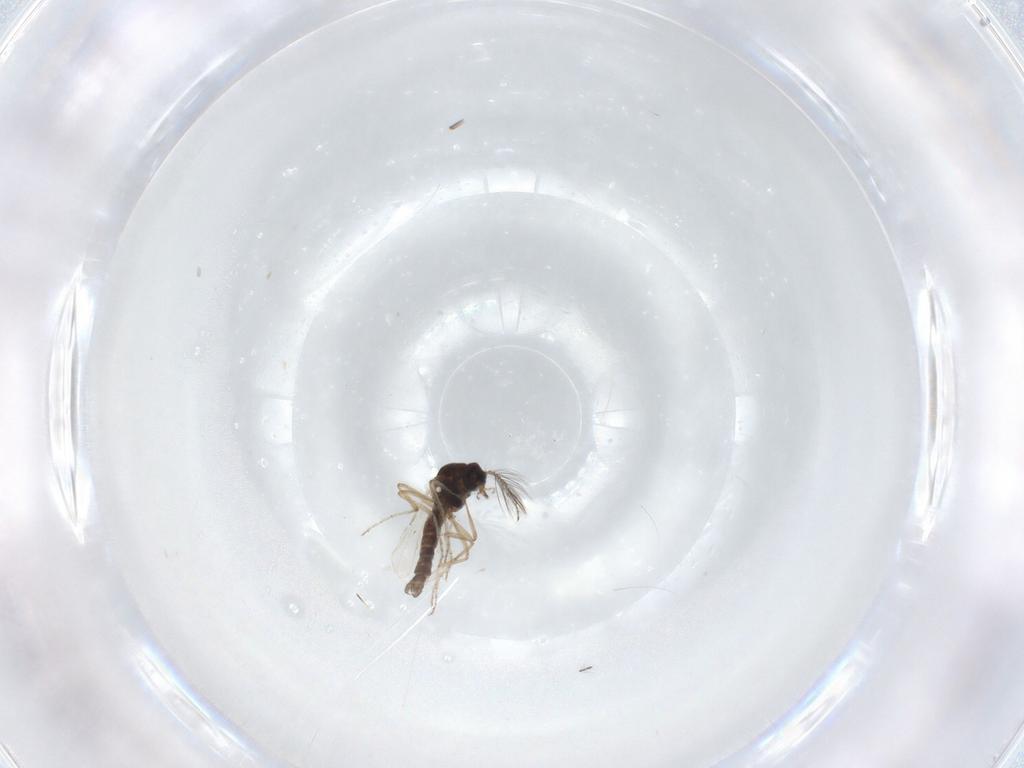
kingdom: Animalia
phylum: Arthropoda
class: Insecta
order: Diptera
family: Ceratopogonidae
